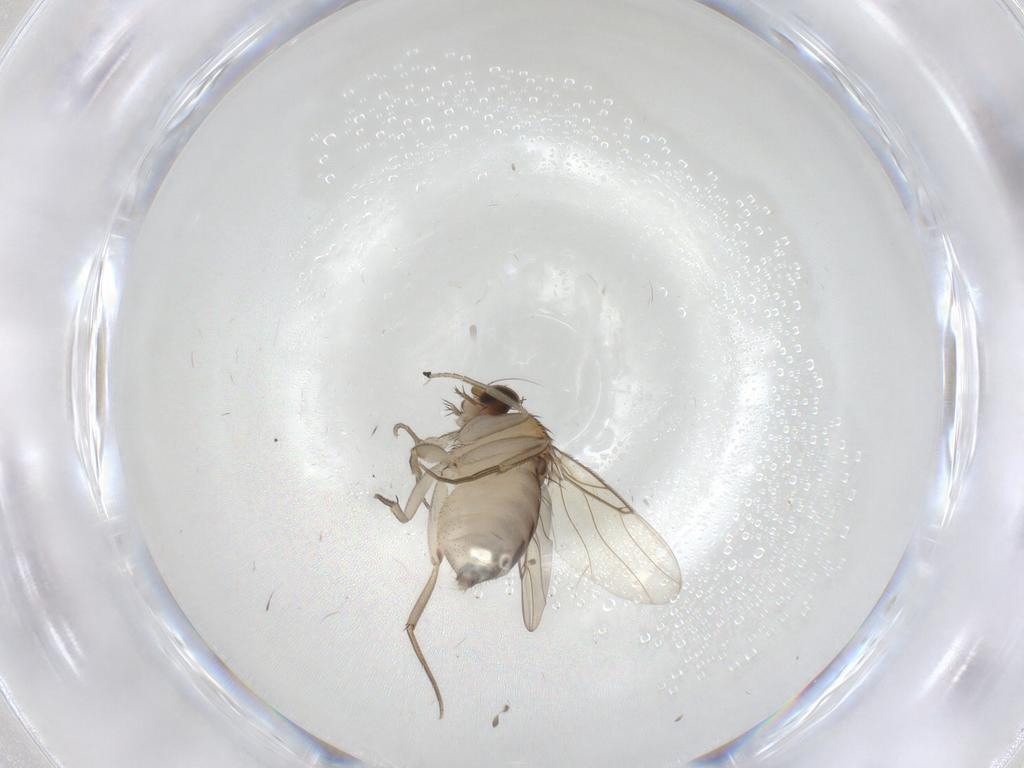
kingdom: Animalia
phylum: Arthropoda
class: Insecta
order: Diptera
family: Phoridae
